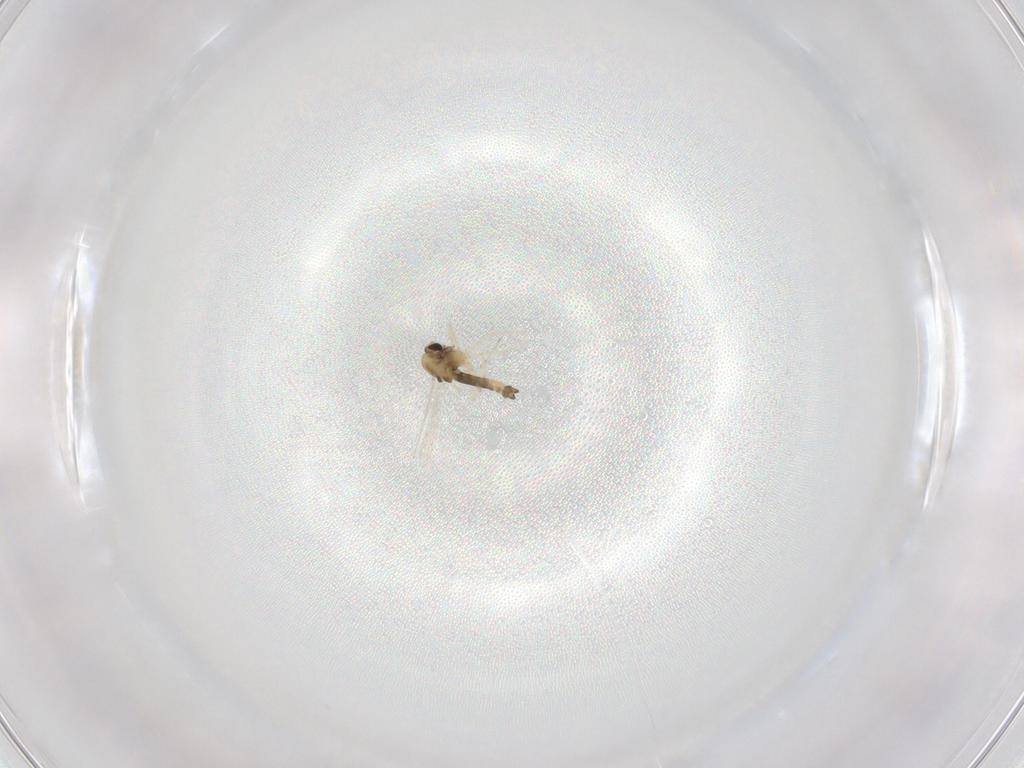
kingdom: Animalia
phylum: Arthropoda
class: Insecta
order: Diptera
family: Chironomidae
